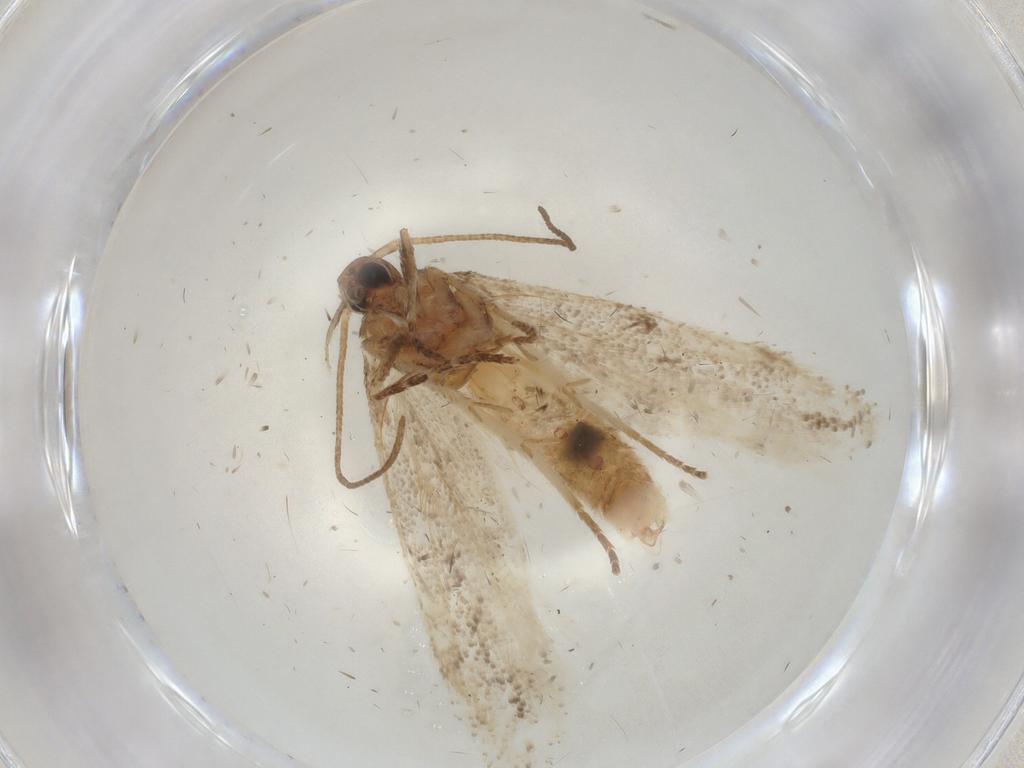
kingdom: Animalia
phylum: Arthropoda
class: Insecta
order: Lepidoptera
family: Gelechiidae
